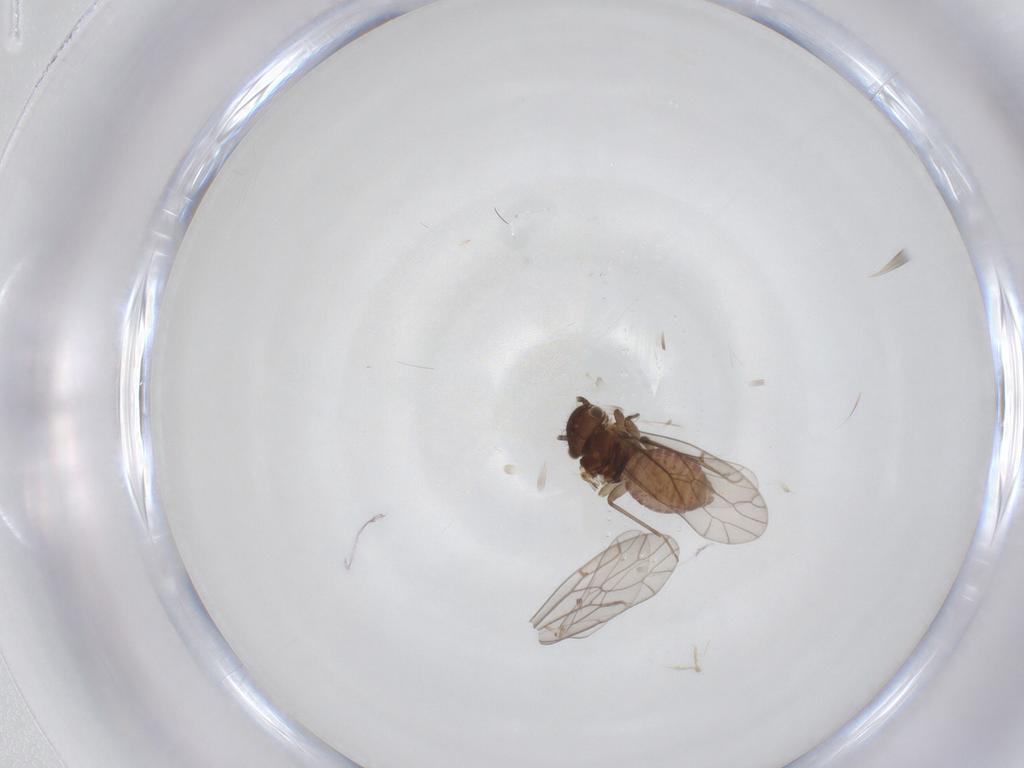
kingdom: Animalia
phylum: Arthropoda
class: Insecta
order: Psocodea
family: Ectopsocidae
